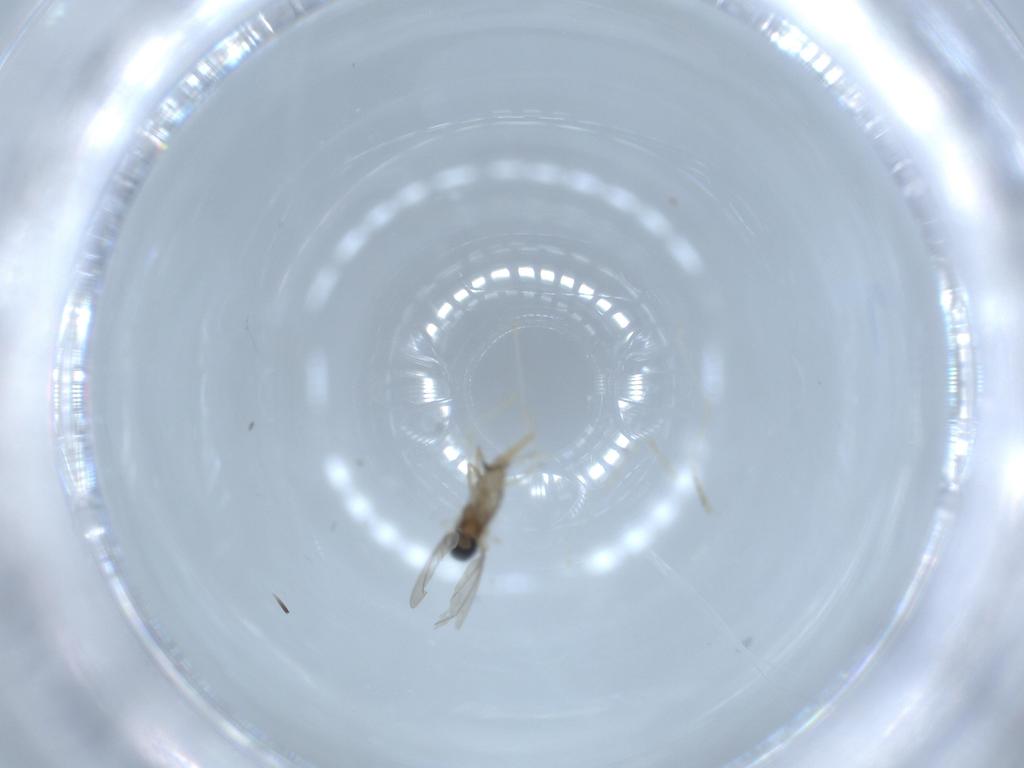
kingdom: Animalia
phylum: Arthropoda
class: Insecta
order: Diptera
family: Cecidomyiidae
